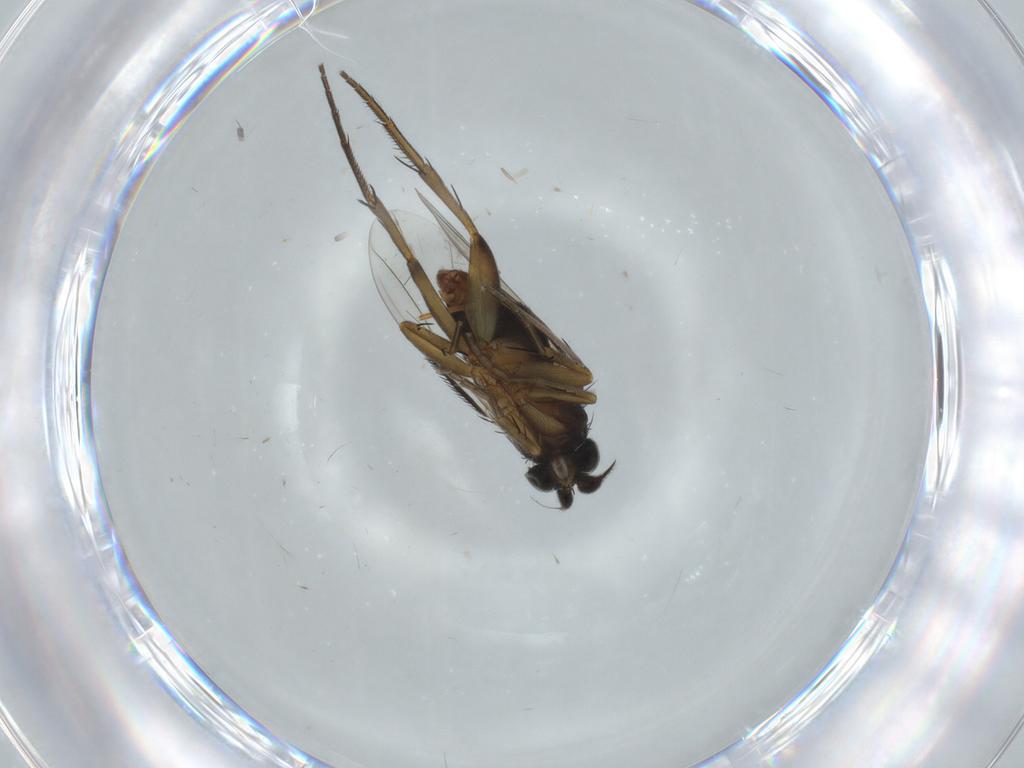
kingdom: Animalia
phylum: Arthropoda
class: Insecta
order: Diptera
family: Phoridae
